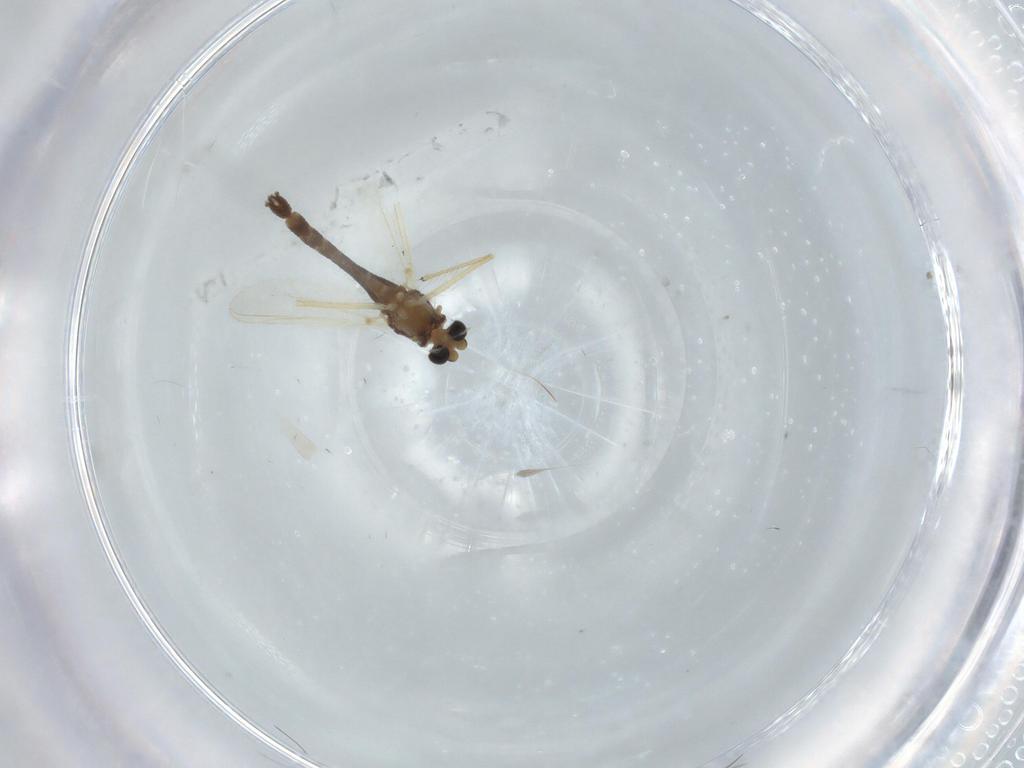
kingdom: Animalia
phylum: Arthropoda
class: Insecta
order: Diptera
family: Chironomidae
